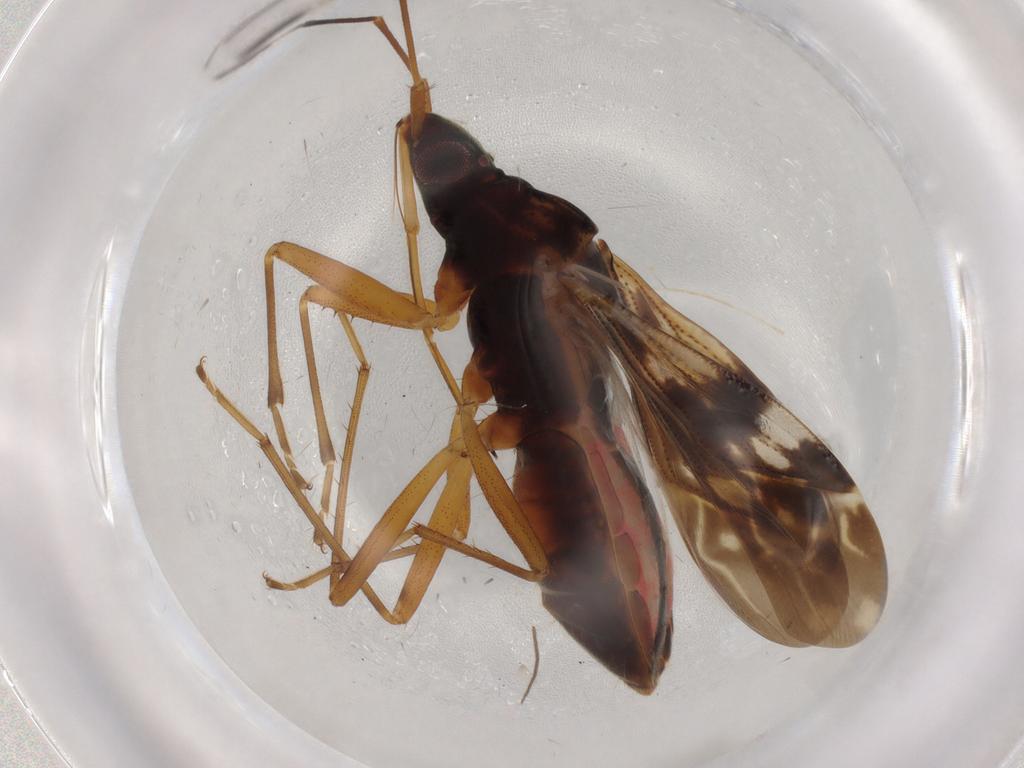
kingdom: Animalia
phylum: Arthropoda
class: Insecta
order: Hemiptera
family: Rhyparochromidae
